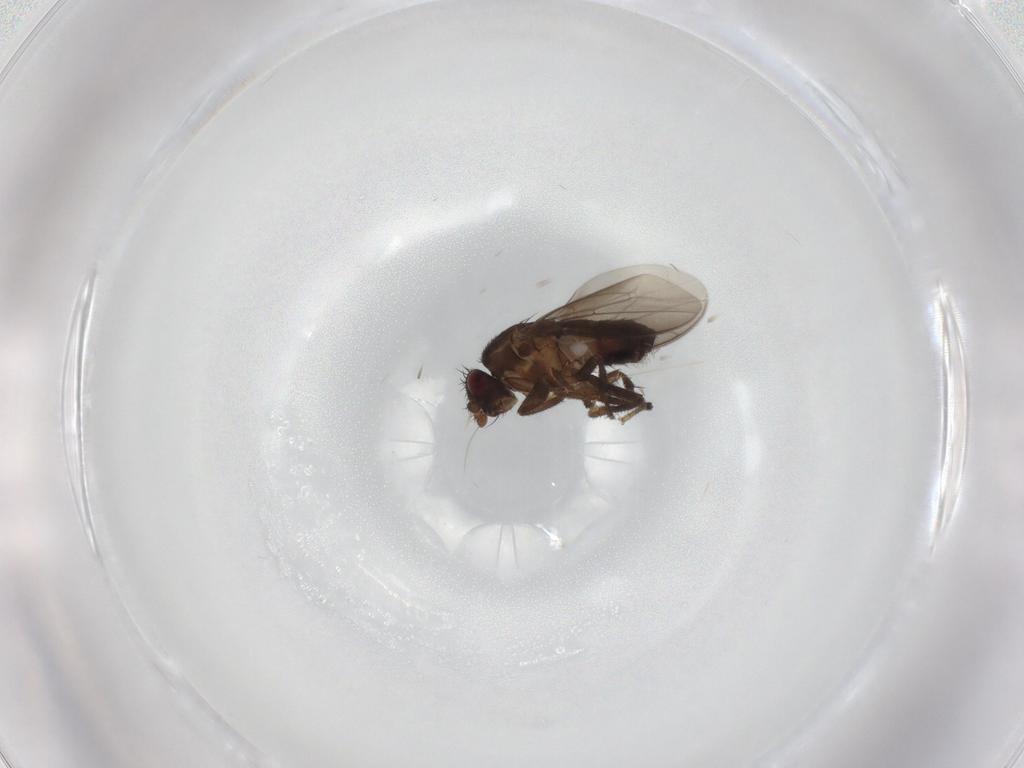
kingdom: Animalia
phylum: Arthropoda
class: Insecta
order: Diptera
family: Sphaeroceridae
